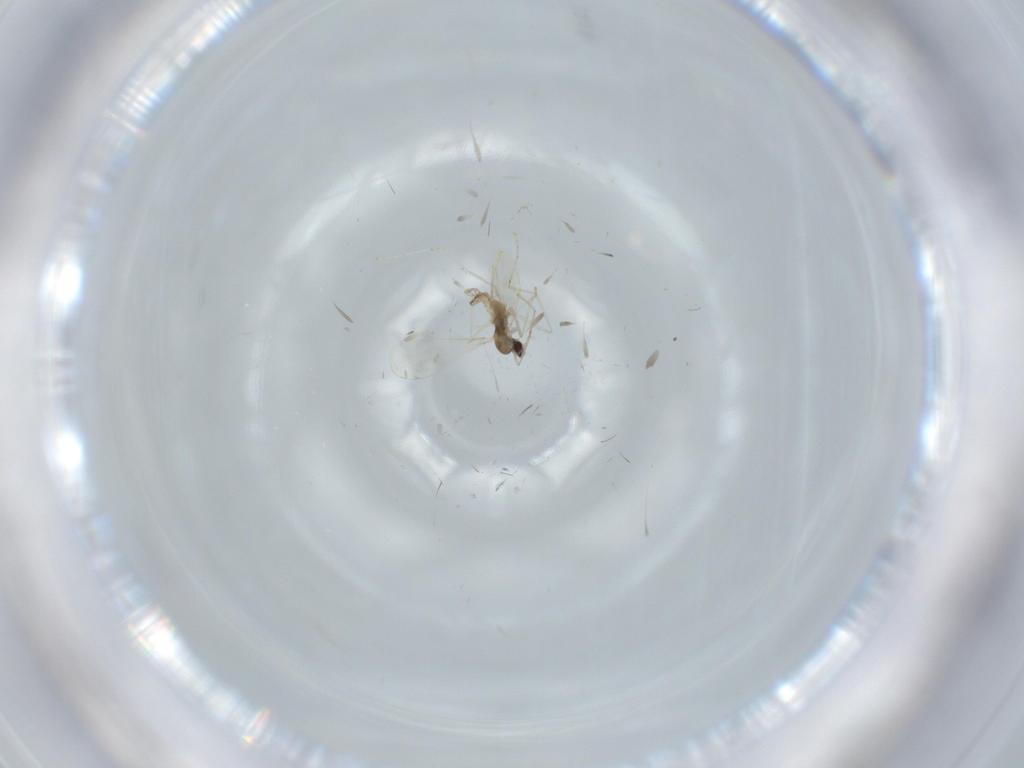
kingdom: Animalia
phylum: Arthropoda
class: Insecta
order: Diptera
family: Cecidomyiidae
